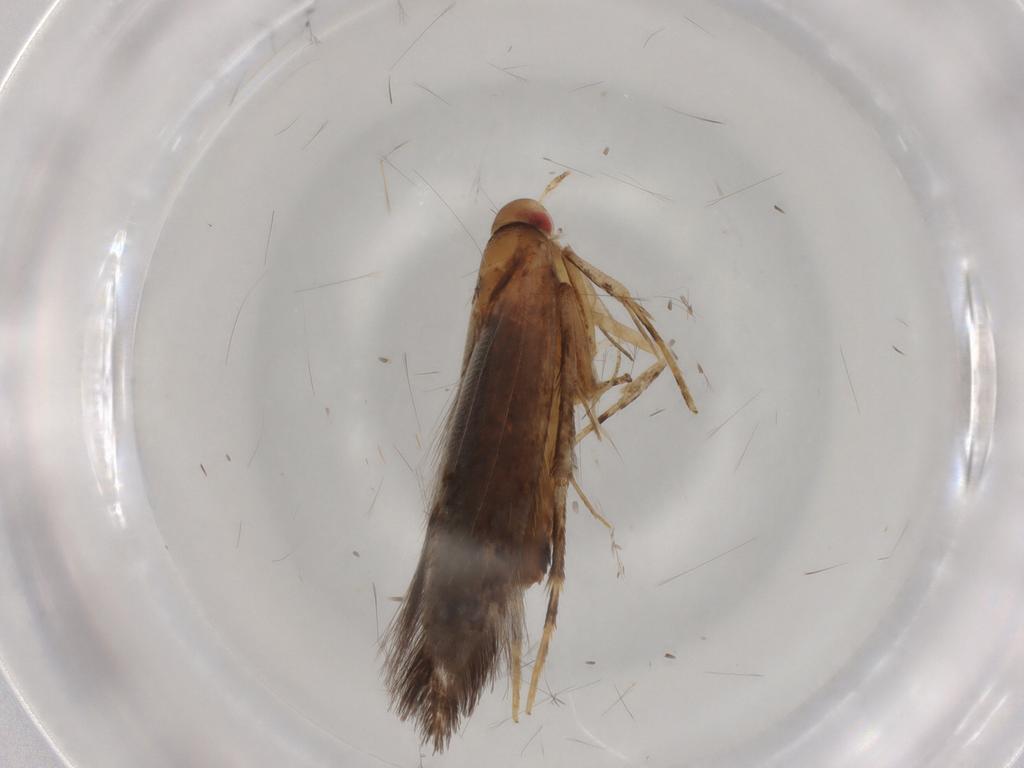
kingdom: Animalia
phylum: Arthropoda
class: Insecta
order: Lepidoptera
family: Cosmopterigidae
